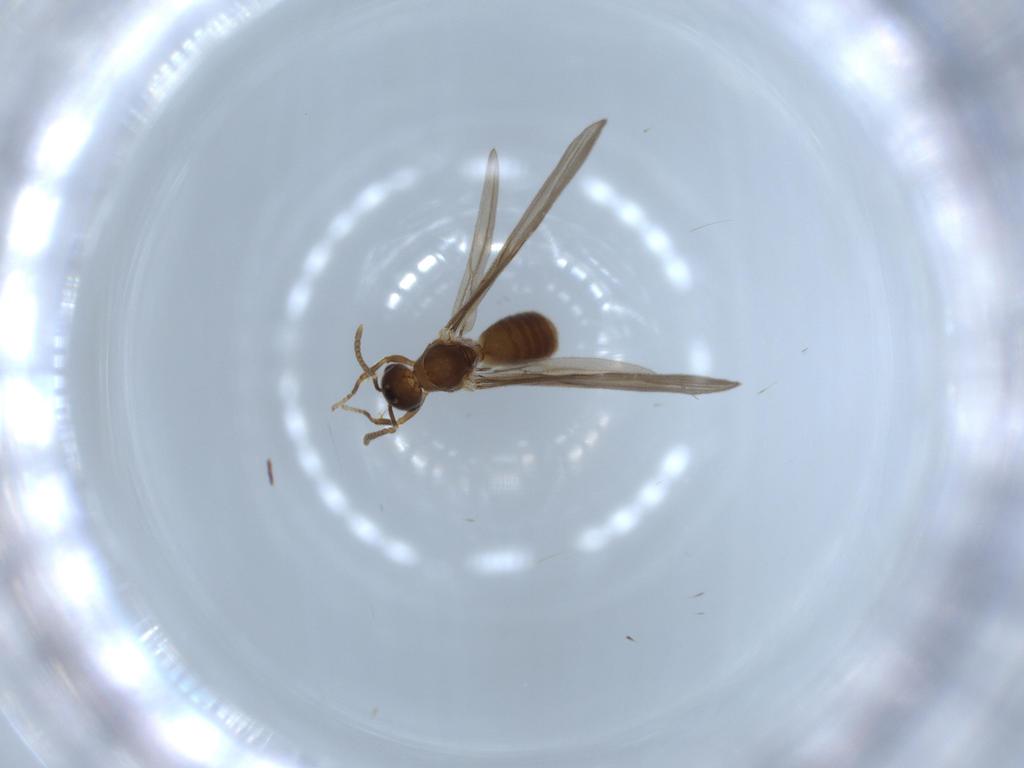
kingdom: Animalia
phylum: Arthropoda
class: Insecta
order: Hymenoptera
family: Formicidae
